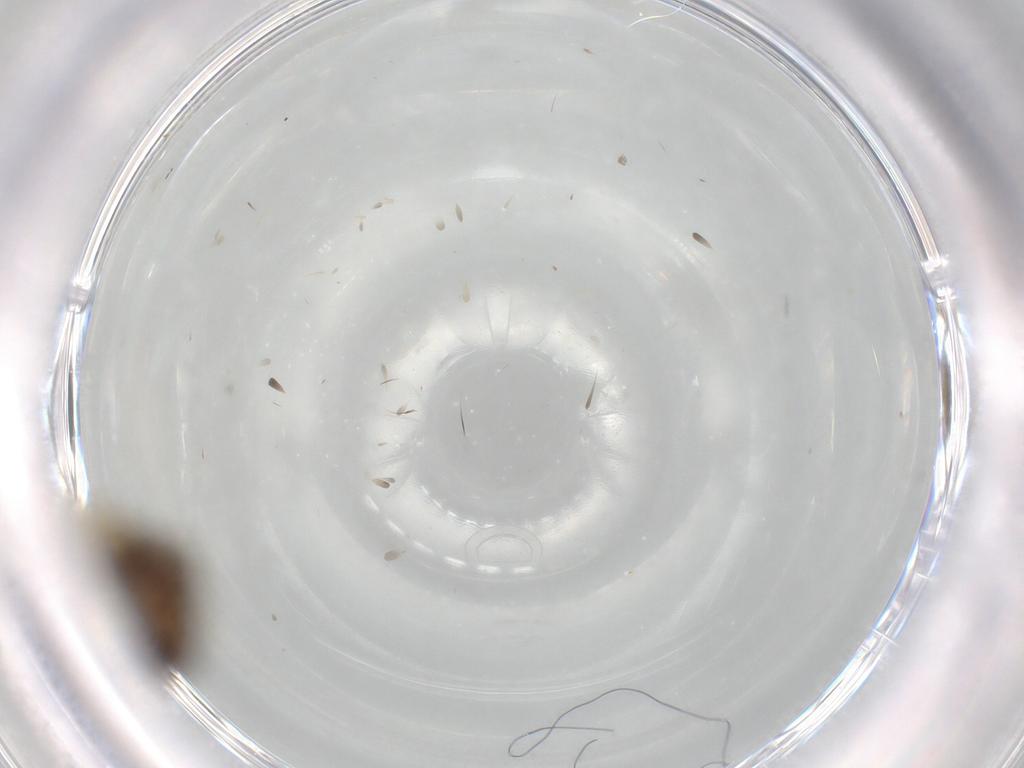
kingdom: Animalia
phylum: Arthropoda
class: Insecta
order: Diptera
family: Phoridae
